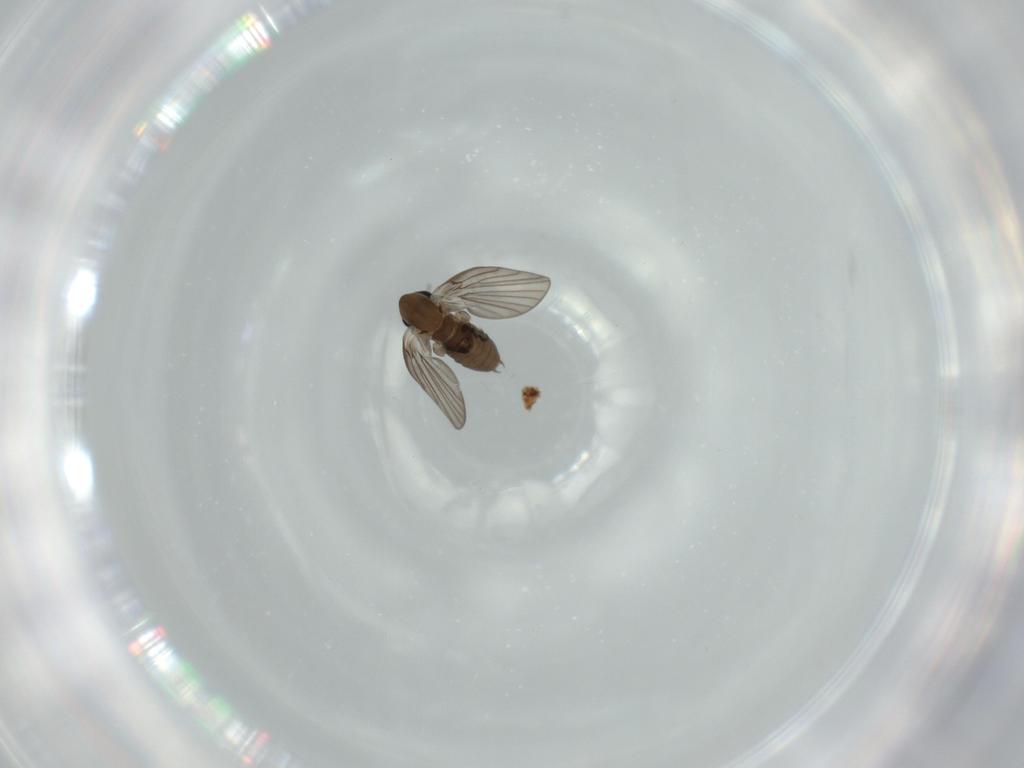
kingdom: Animalia
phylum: Arthropoda
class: Insecta
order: Diptera
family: Psychodidae
